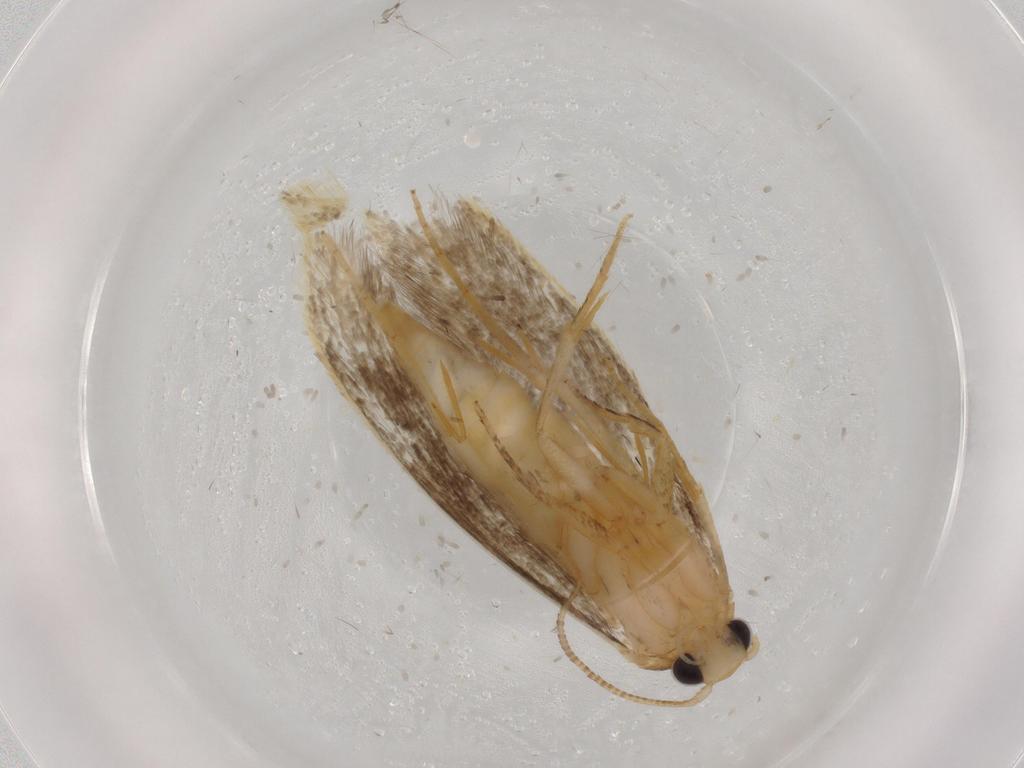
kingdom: Animalia
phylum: Arthropoda
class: Insecta
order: Lepidoptera
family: Tineidae
